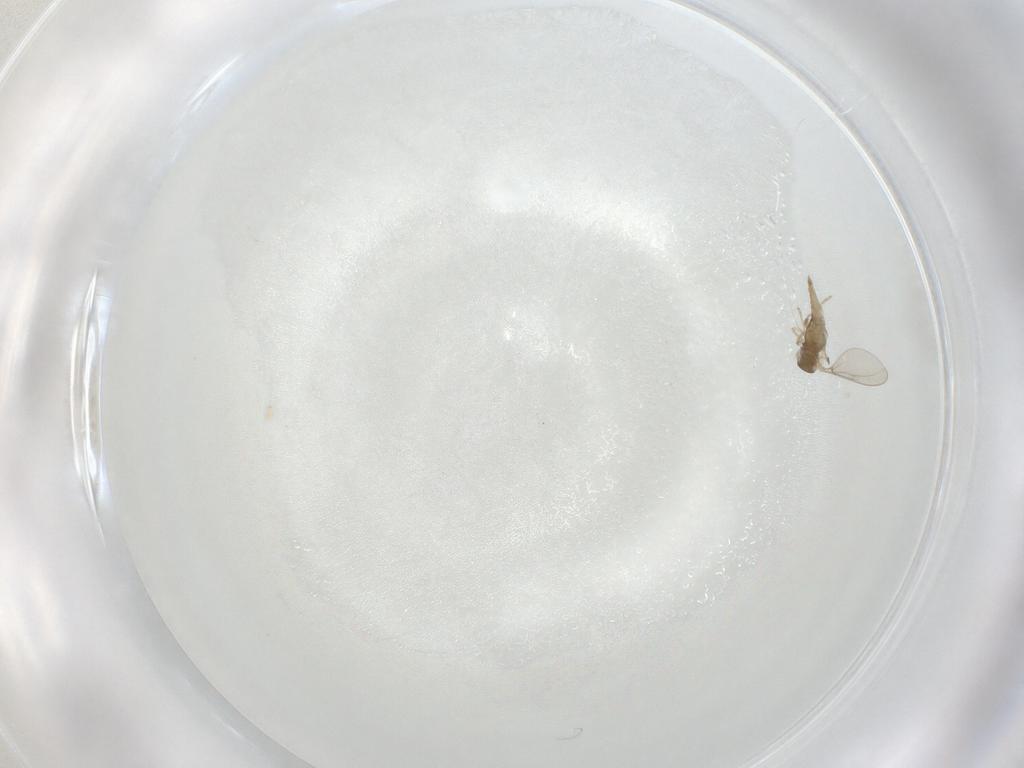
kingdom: Animalia
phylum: Arthropoda
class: Insecta
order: Diptera
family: Cecidomyiidae
